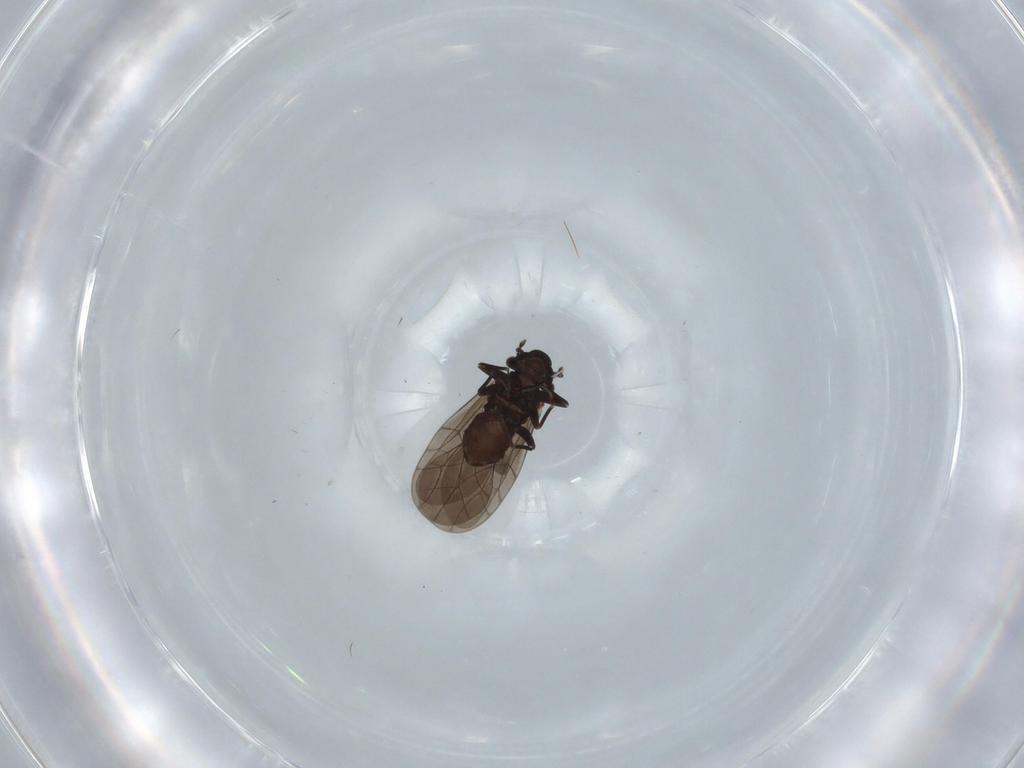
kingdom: Animalia
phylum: Arthropoda
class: Insecta
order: Psocodea
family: Lepidopsocidae
